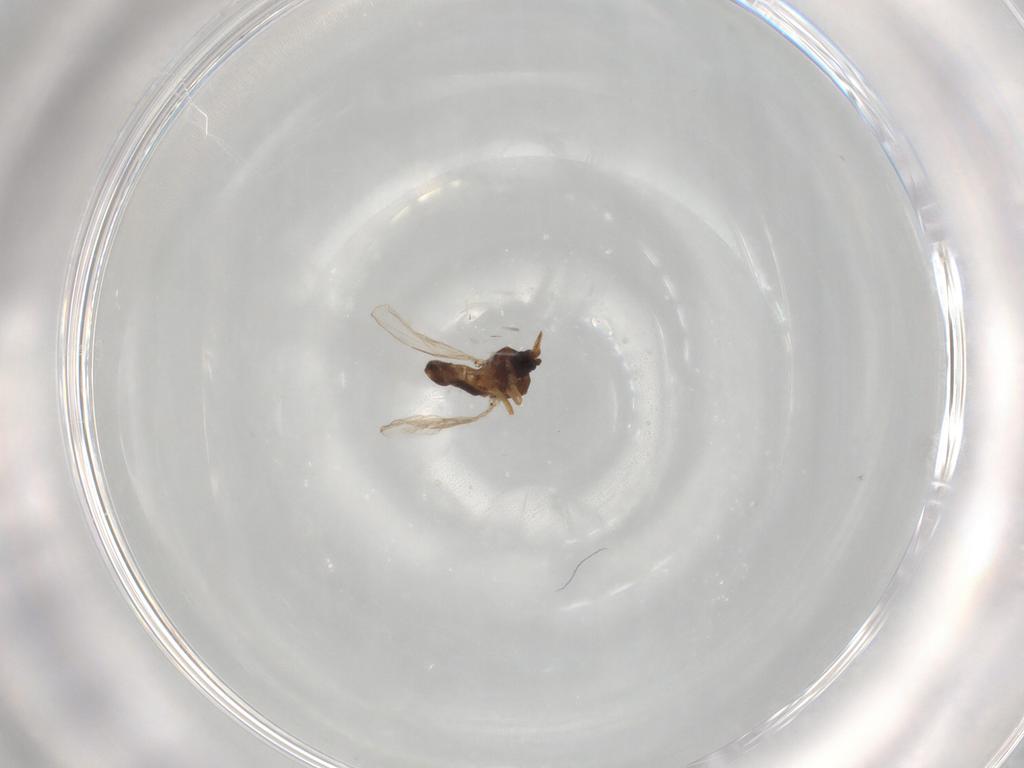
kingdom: Animalia
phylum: Arthropoda
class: Insecta
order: Diptera
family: Ceratopogonidae
